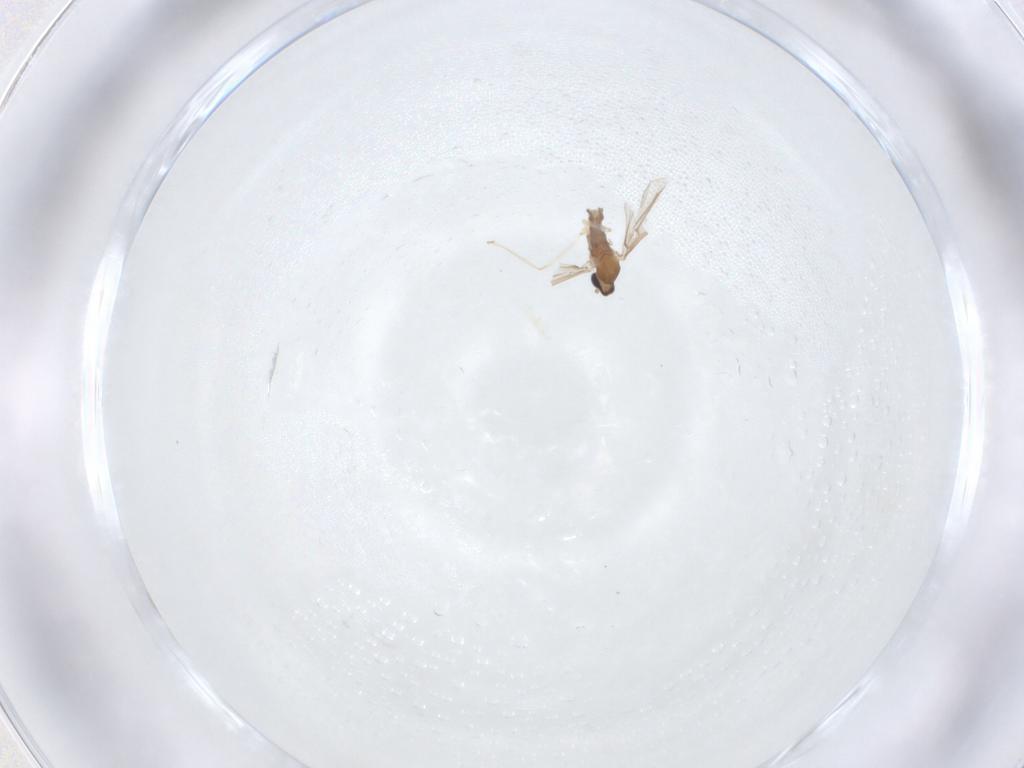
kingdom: Animalia
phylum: Arthropoda
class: Insecta
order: Diptera
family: Cecidomyiidae
